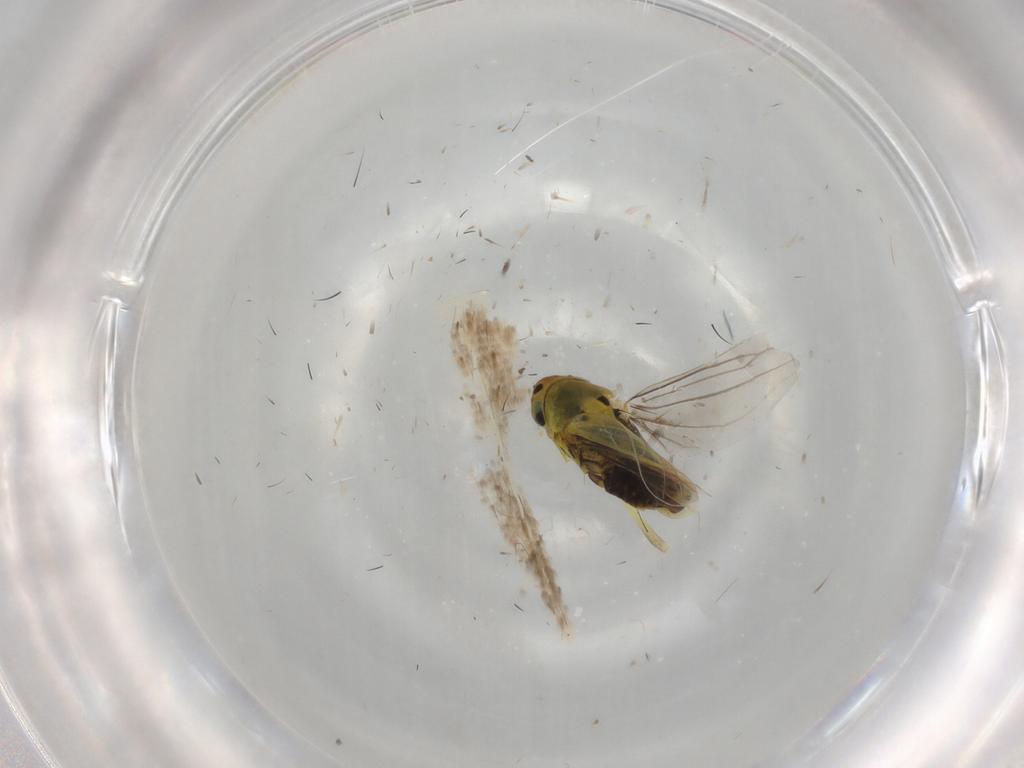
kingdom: Animalia
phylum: Arthropoda
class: Insecta
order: Hemiptera
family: Cicadellidae
